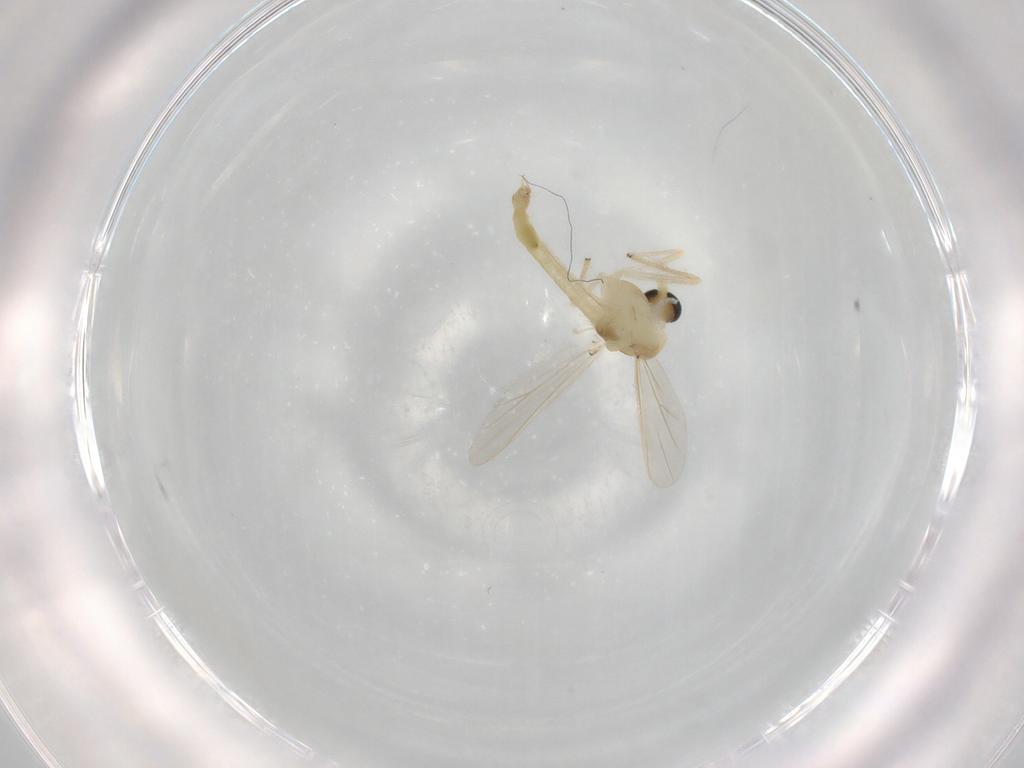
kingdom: Animalia
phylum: Arthropoda
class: Insecta
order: Diptera
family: Chironomidae
